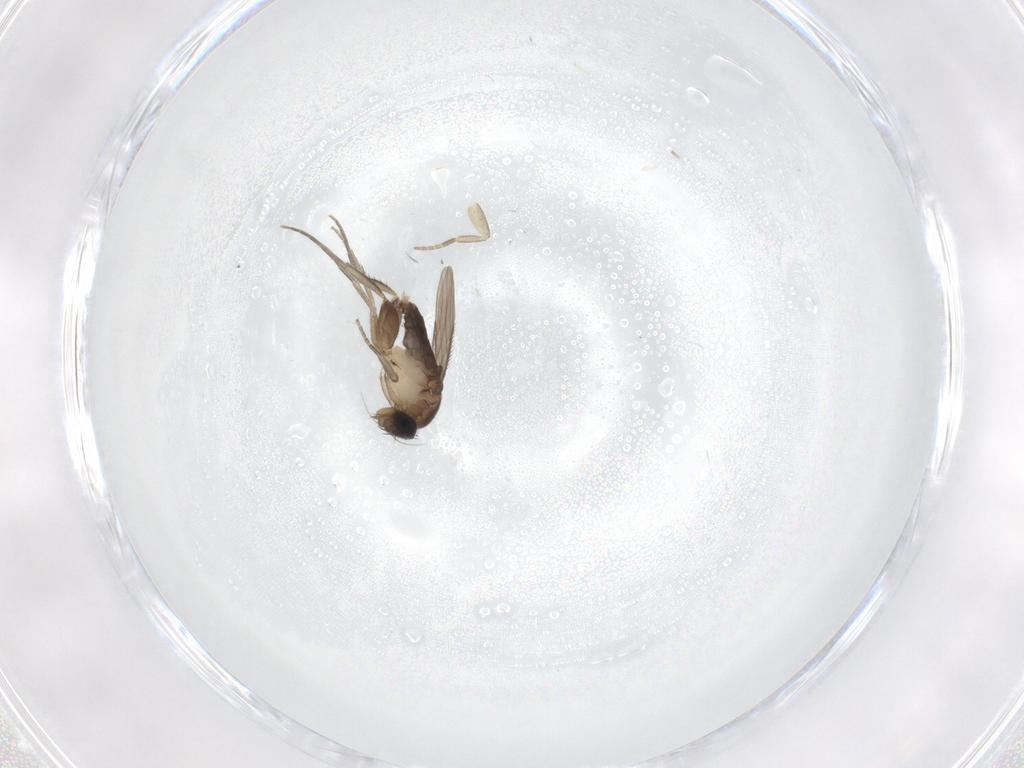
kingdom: Animalia
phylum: Arthropoda
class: Insecta
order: Diptera
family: Phoridae
